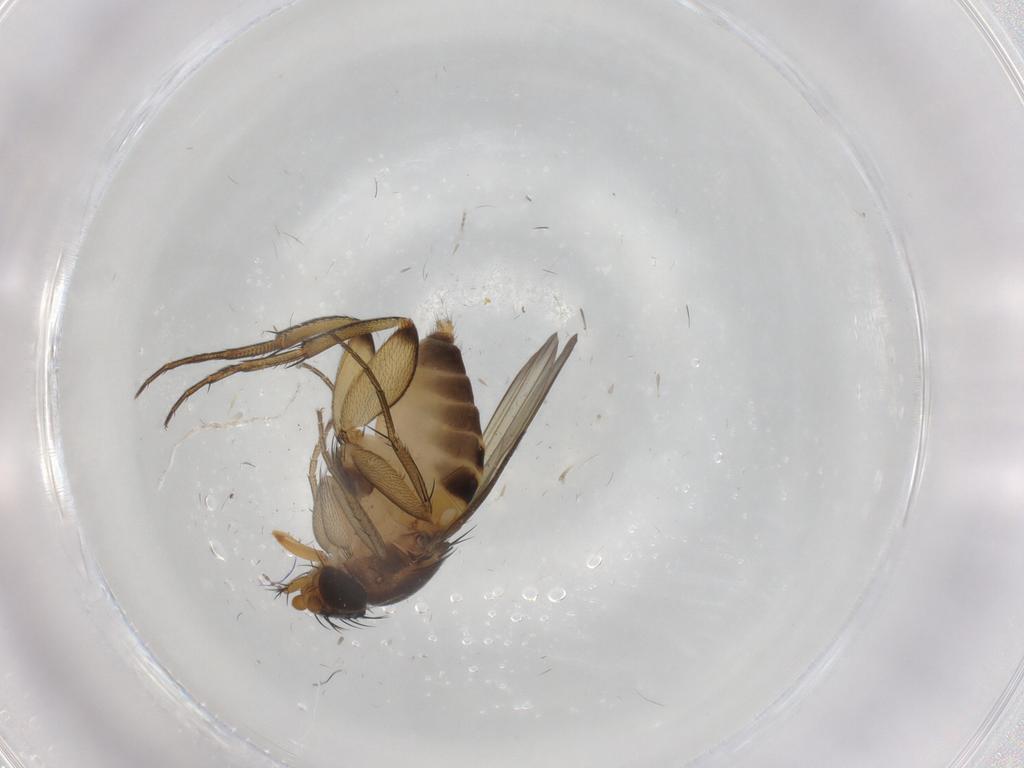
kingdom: Animalia
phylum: Arthropoda
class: Insecta
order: Diptera
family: Phoridae
